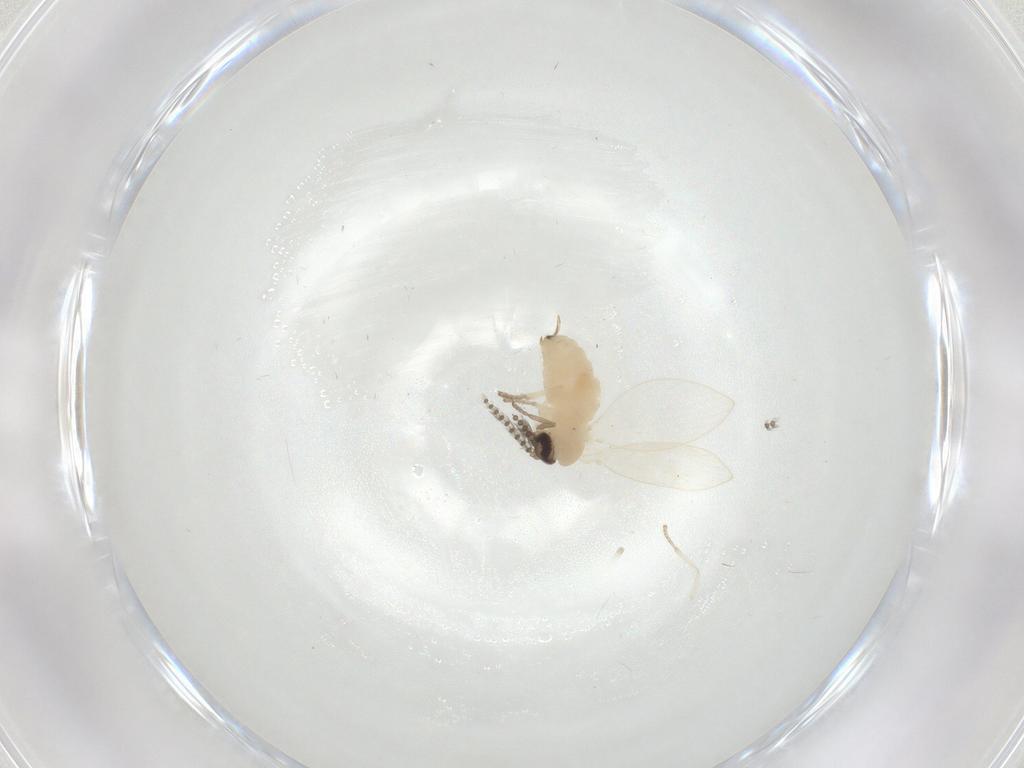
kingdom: Animalia
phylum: Arthropoda
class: Insecta
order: Diptera
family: Psychodidae
